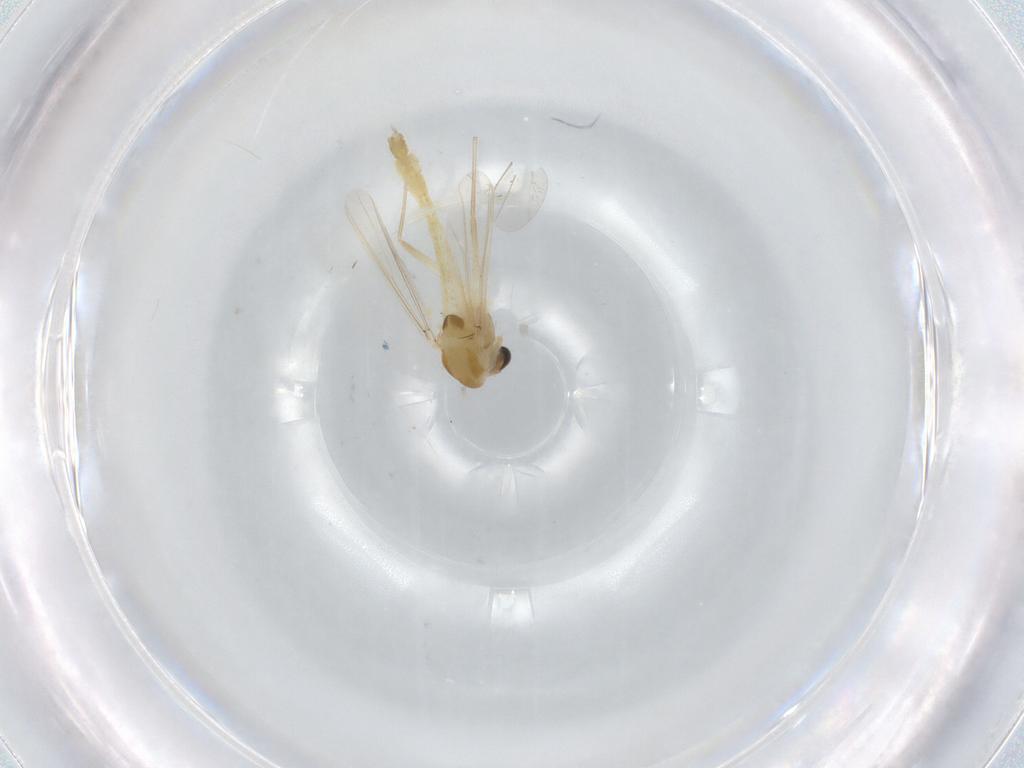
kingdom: Animalia
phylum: Arthropoda
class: Insecta
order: Diptera
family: Chironomidae
